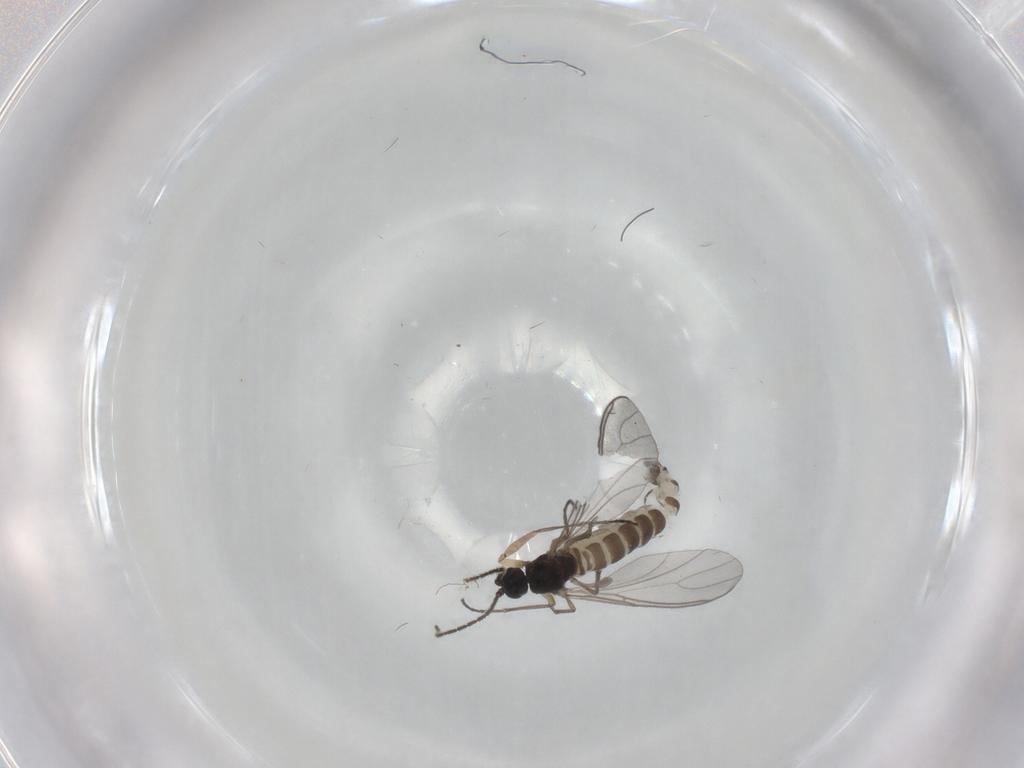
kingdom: Animalia
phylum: Arthropoda
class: Insecta
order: Diptera
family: Sciaridae
